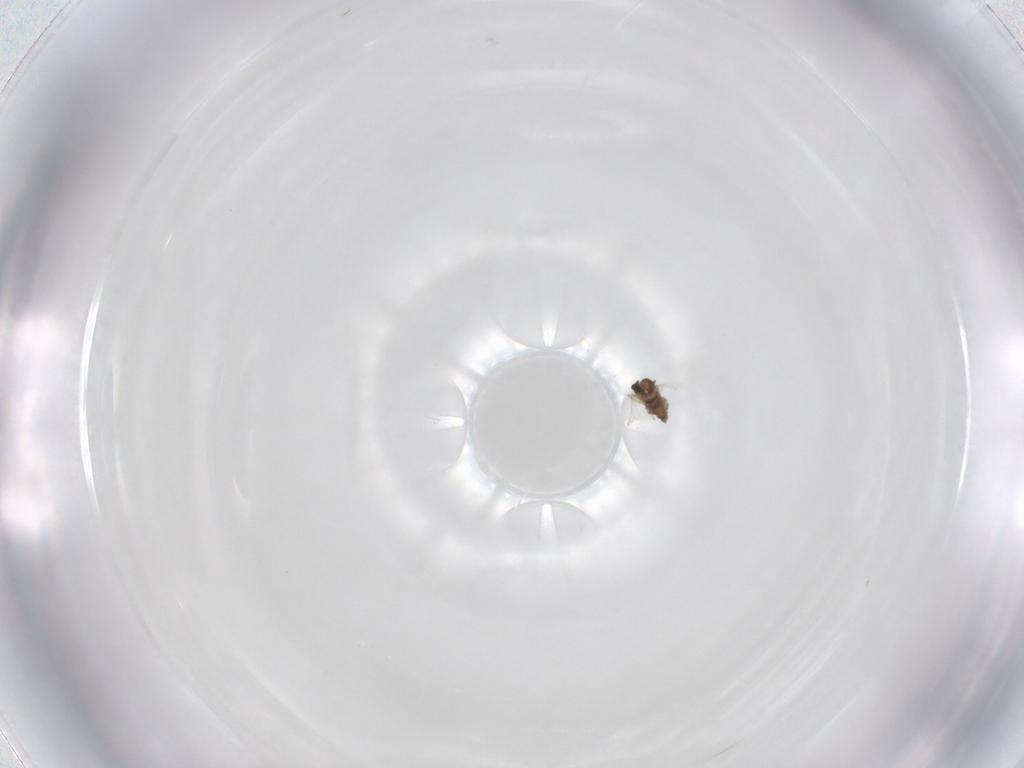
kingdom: Animalia
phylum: Arthropoda
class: Insecta
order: Diptera
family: Cecidomyiidae
